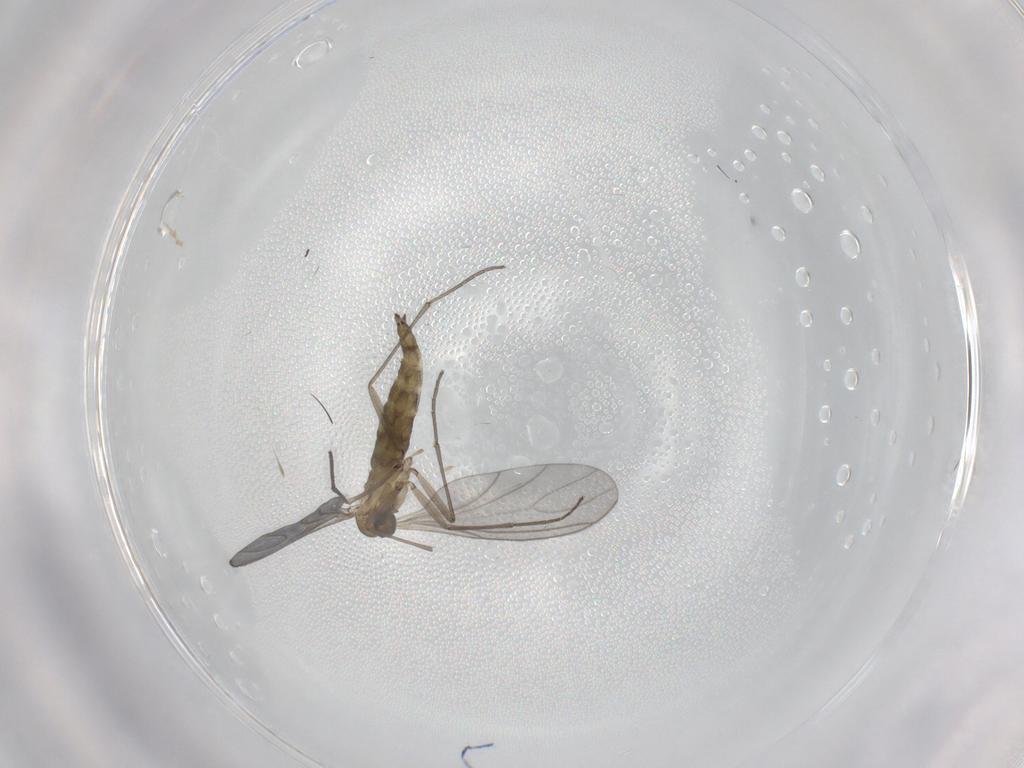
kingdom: Animalia
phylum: Arthropoda
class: Insecta
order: Diptera
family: Sciaridae
